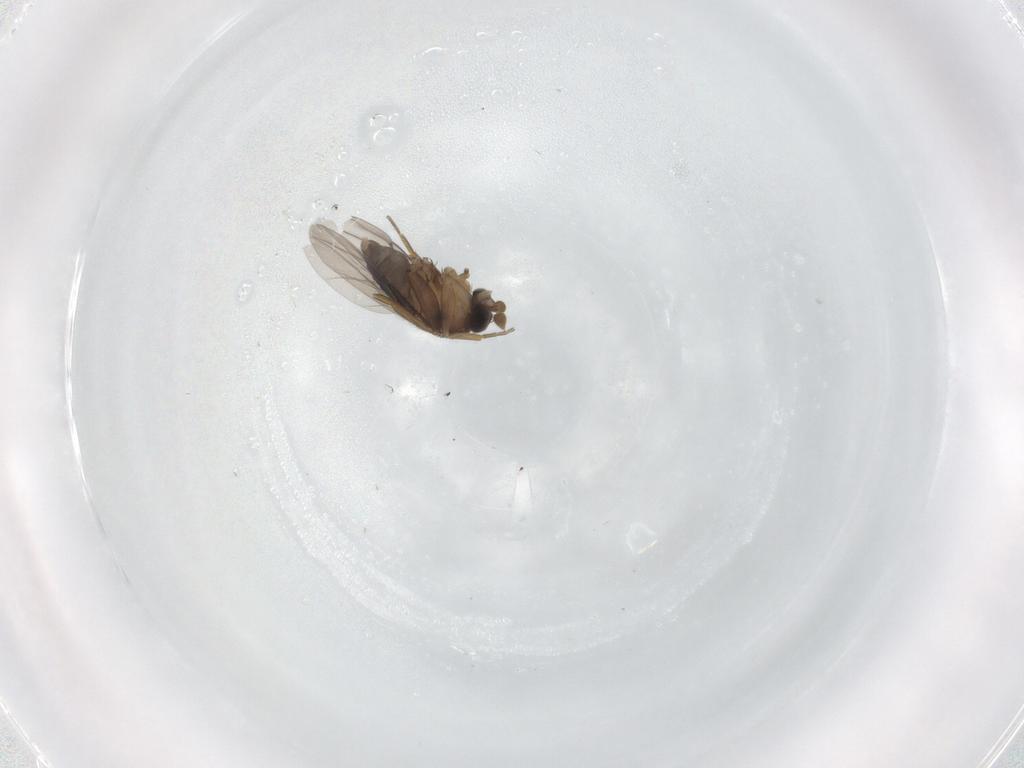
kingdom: Animalia
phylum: Arthropoda
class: Insecta
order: Diptera
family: Phoridae
